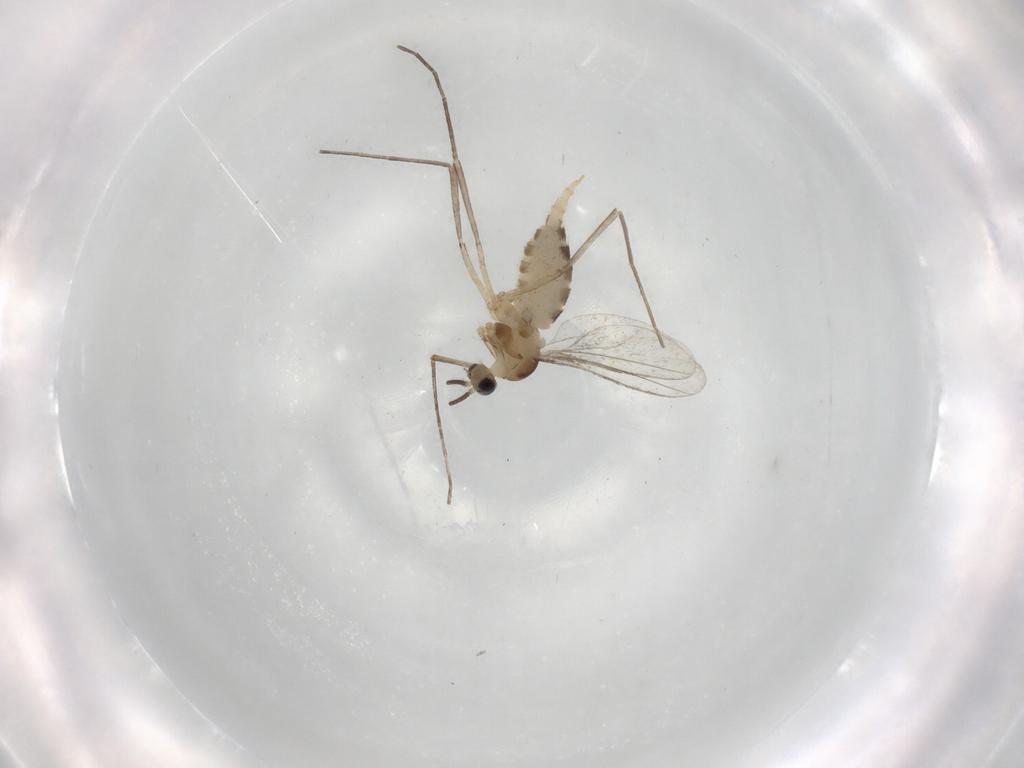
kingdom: Animalia
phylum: Arthropoda
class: Insecta
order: Diptera
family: Cecidomyiidae
